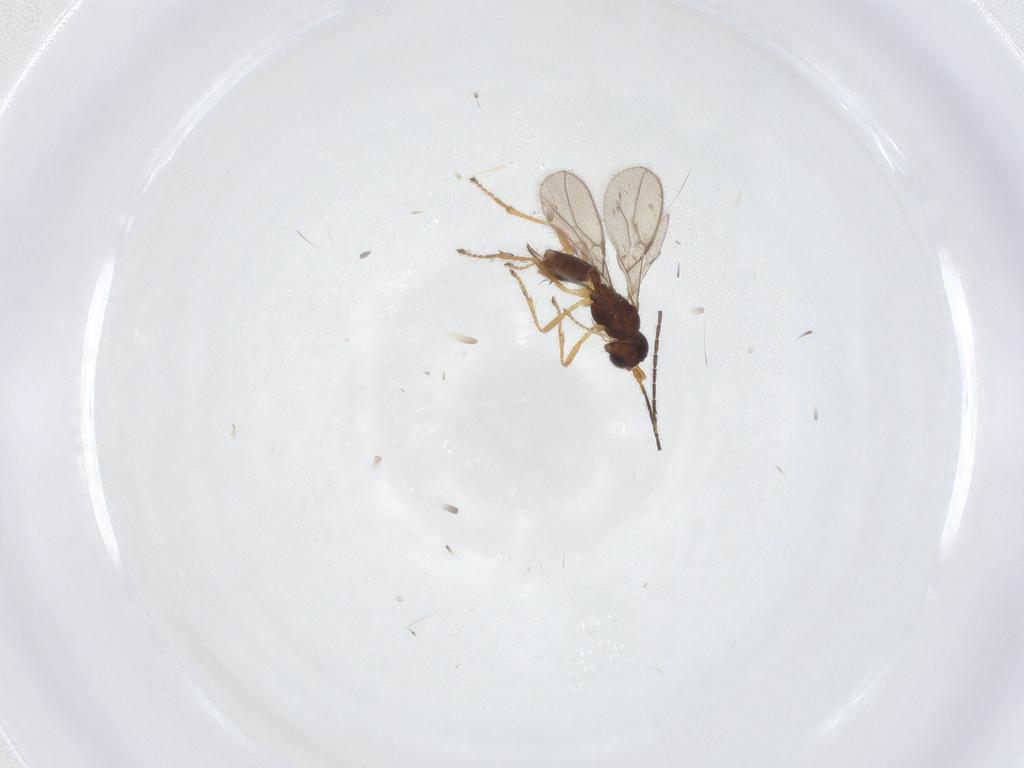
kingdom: Animalia
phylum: Arthropoda
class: Insecta
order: Hymenoptera
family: Braconidae
